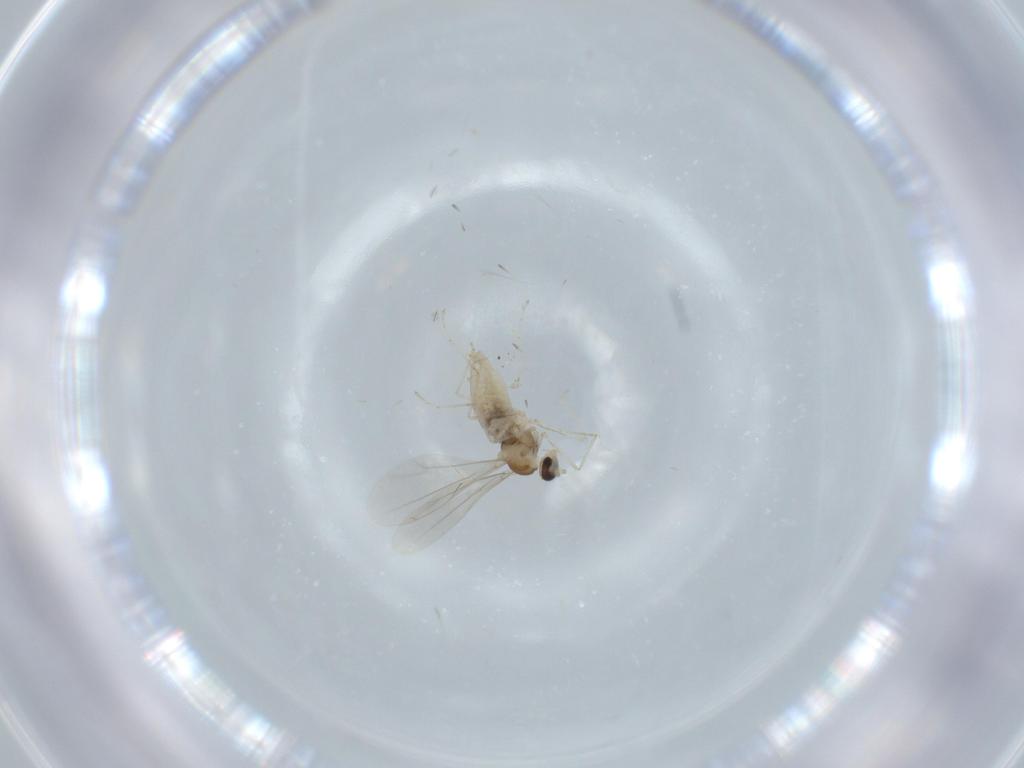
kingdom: Animalia
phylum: Arthropoda
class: Insecta
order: Diptera
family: Cecidomyiidae
